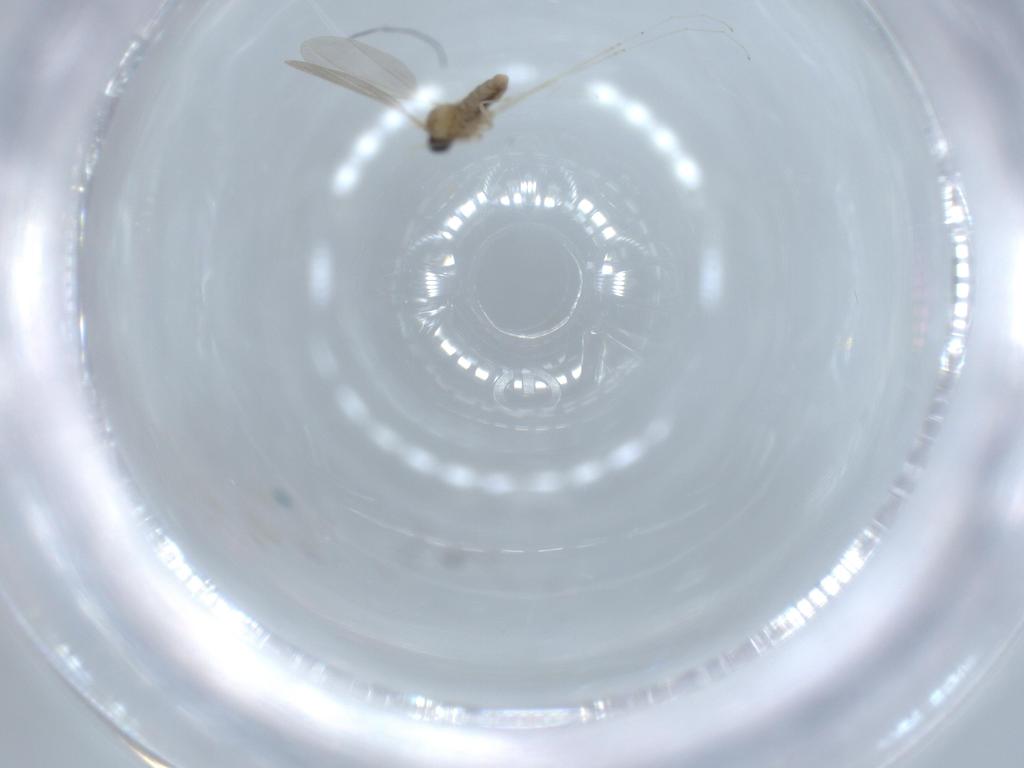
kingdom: Animalia
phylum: Arthropoda
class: Insecta
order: Diptera
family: Cecidomyiidae
